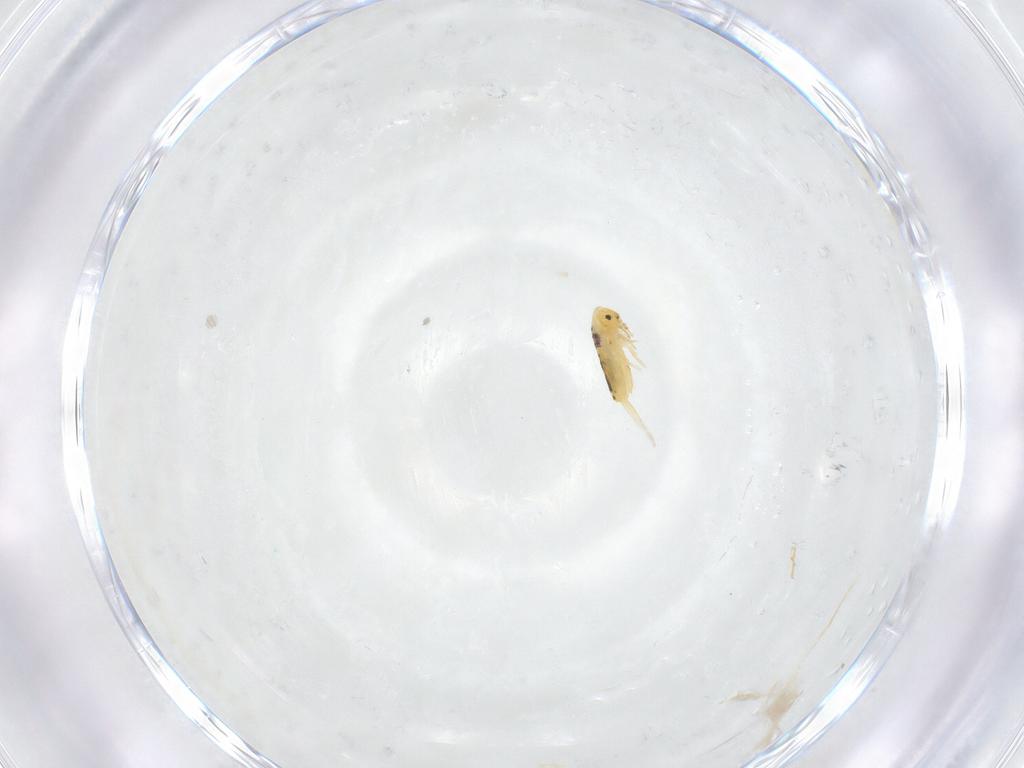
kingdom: Animalia
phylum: Arthropoda
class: Collembola
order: Entomobryomorpha
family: Entomobryidae
